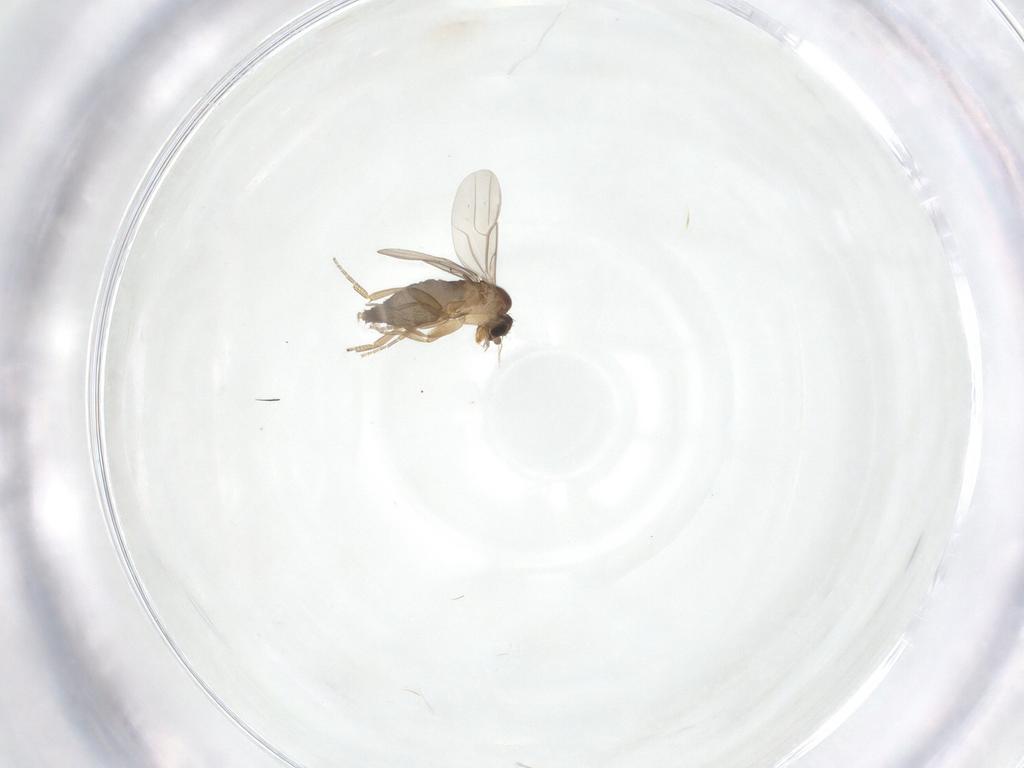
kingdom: Animalia
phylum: Arthropoda
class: Insecta
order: Diptera
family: Phoridae
